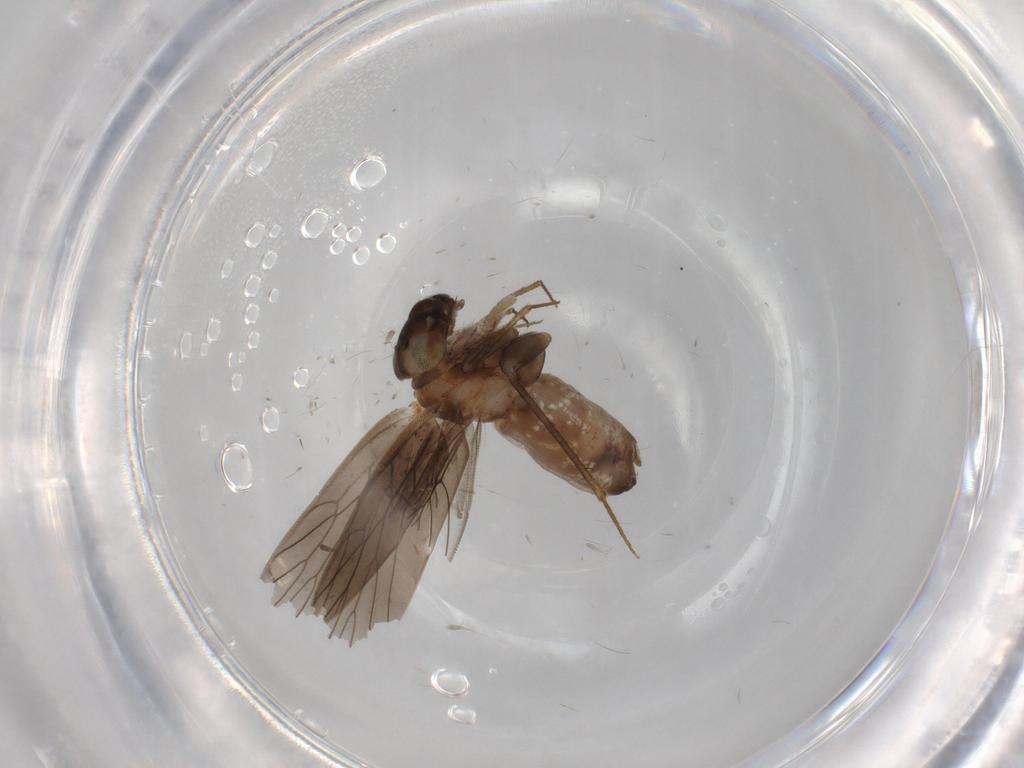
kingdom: Animalia
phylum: Arthropoda
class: Insecta
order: Psocodea
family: Lepidopsocidae
